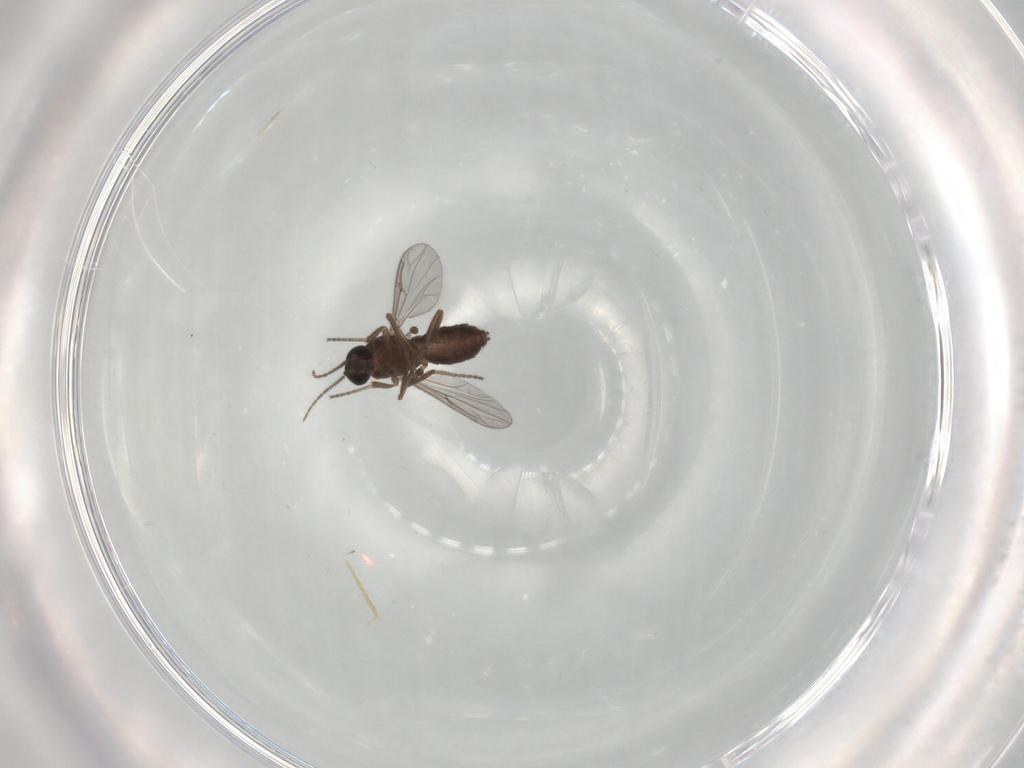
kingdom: Animalia
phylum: Arthropoda
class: Insecta
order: Diptera
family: Ceratopogonidae
